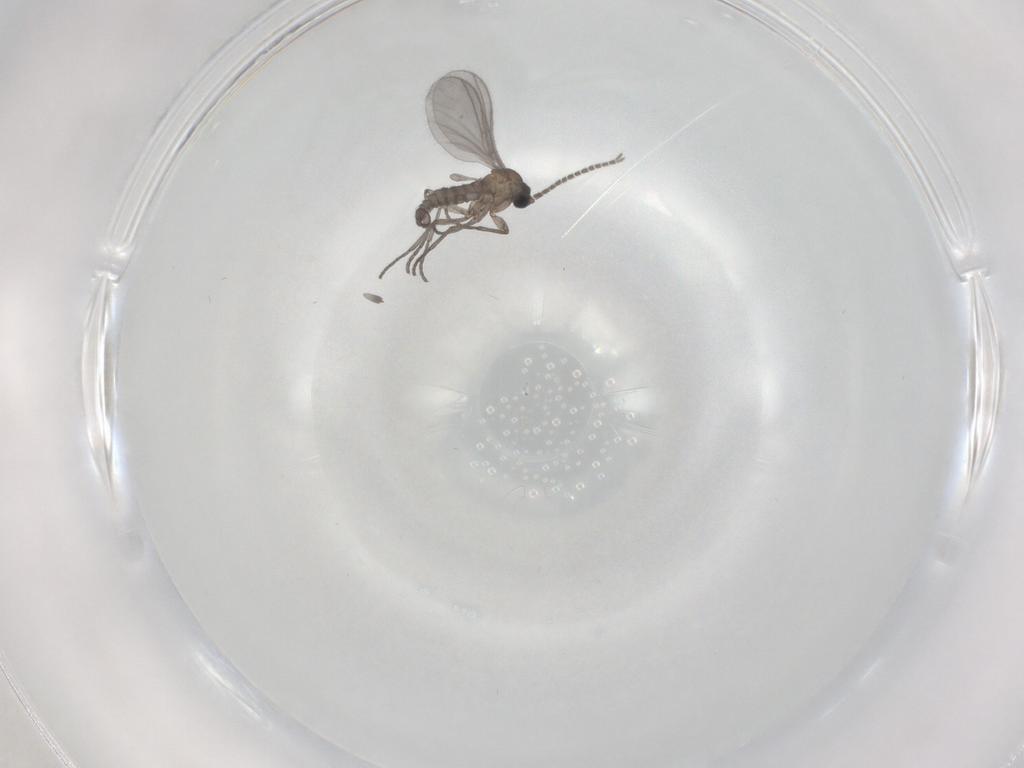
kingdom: Animalia
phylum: Arthropoda
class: Insecta
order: Diptera
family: Sciaridae
